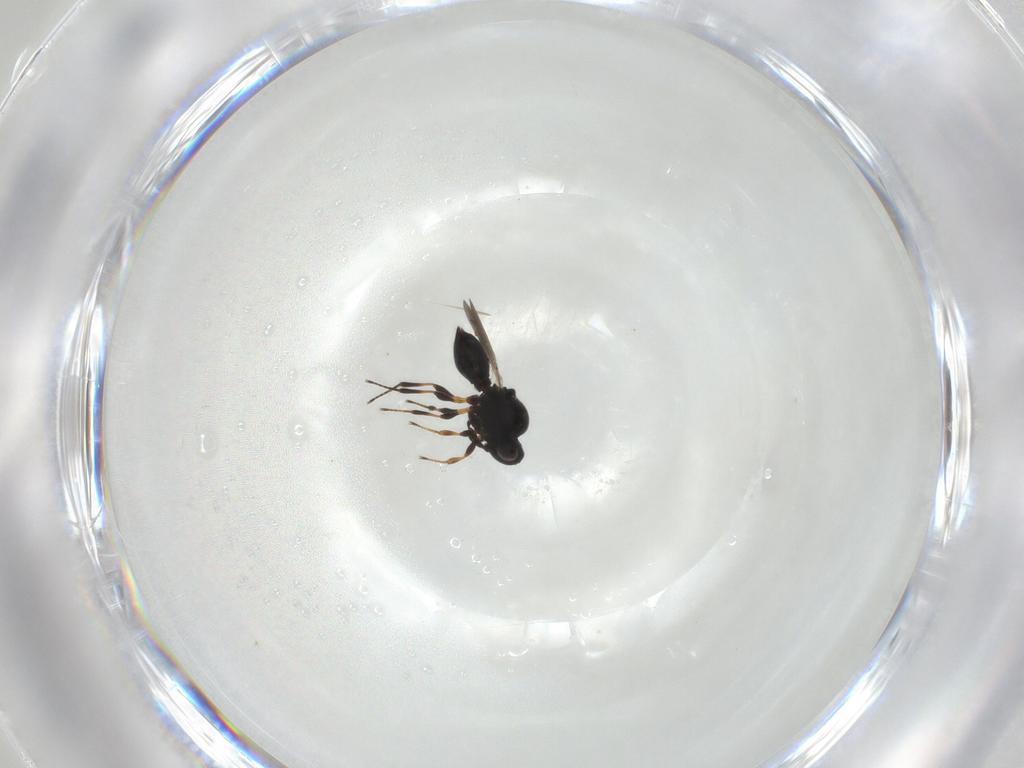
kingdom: Animalia
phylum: Arthropoda
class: Insecta
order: Hymenoptera
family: Platygastridae
